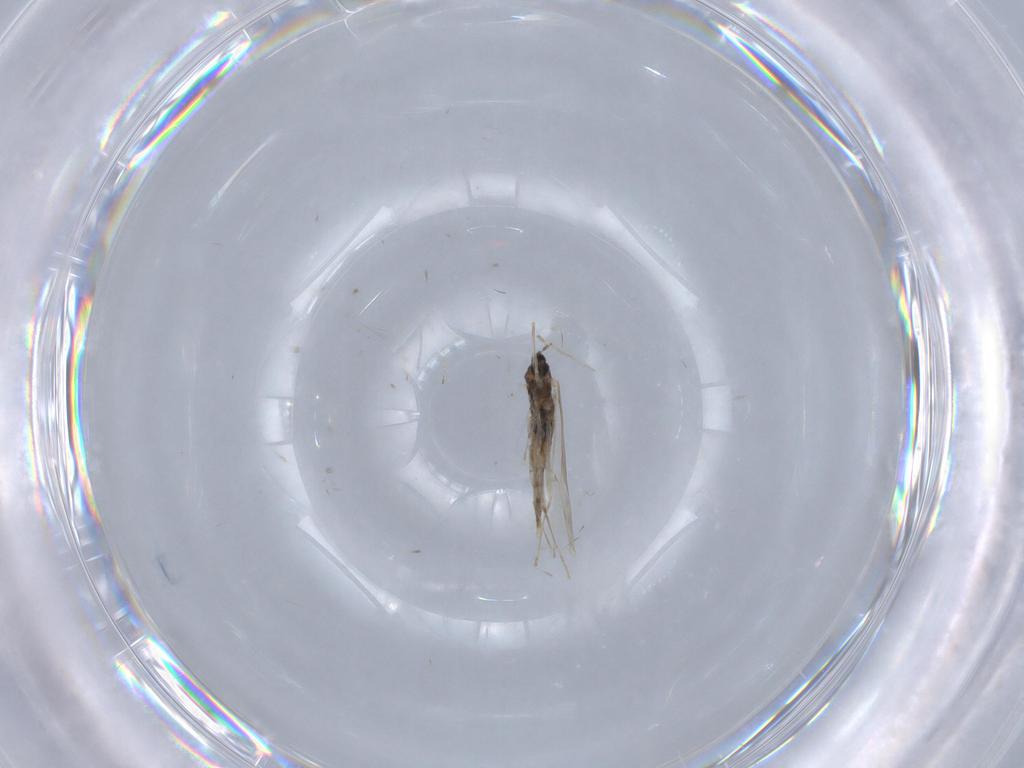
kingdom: Animalia
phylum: Arthropoda
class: Insecta
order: Diptera
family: Cecidomyiidae
